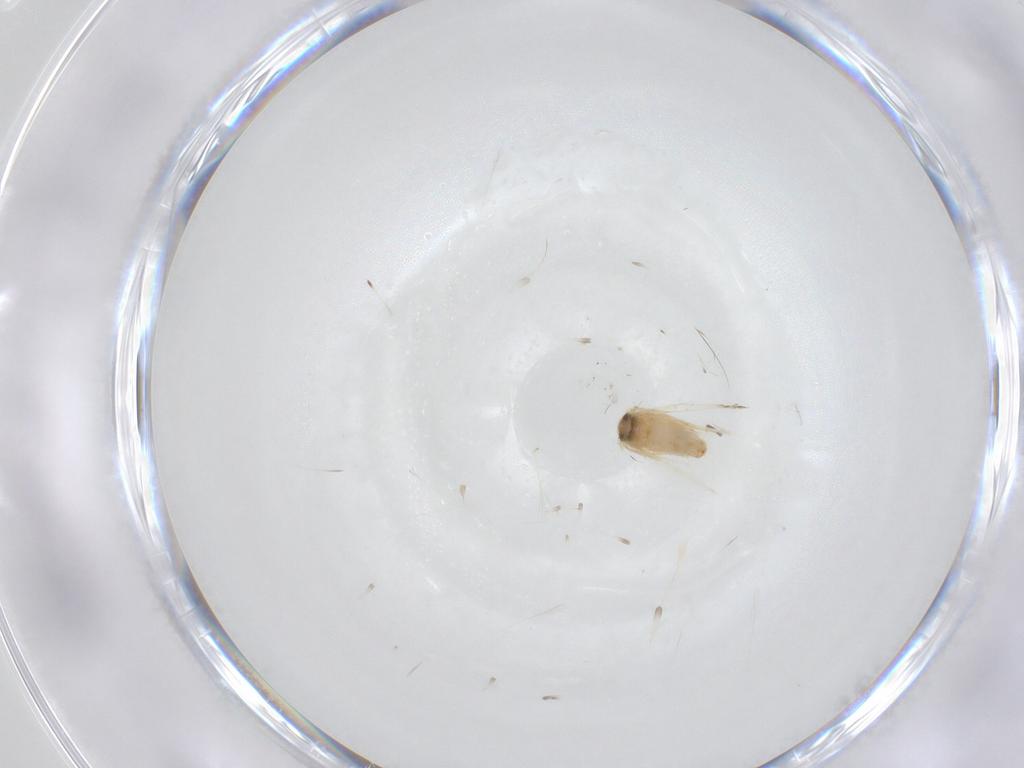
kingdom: Animalia
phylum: Arthropoda
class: Insecta
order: Lepidoptera
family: Crambidae
